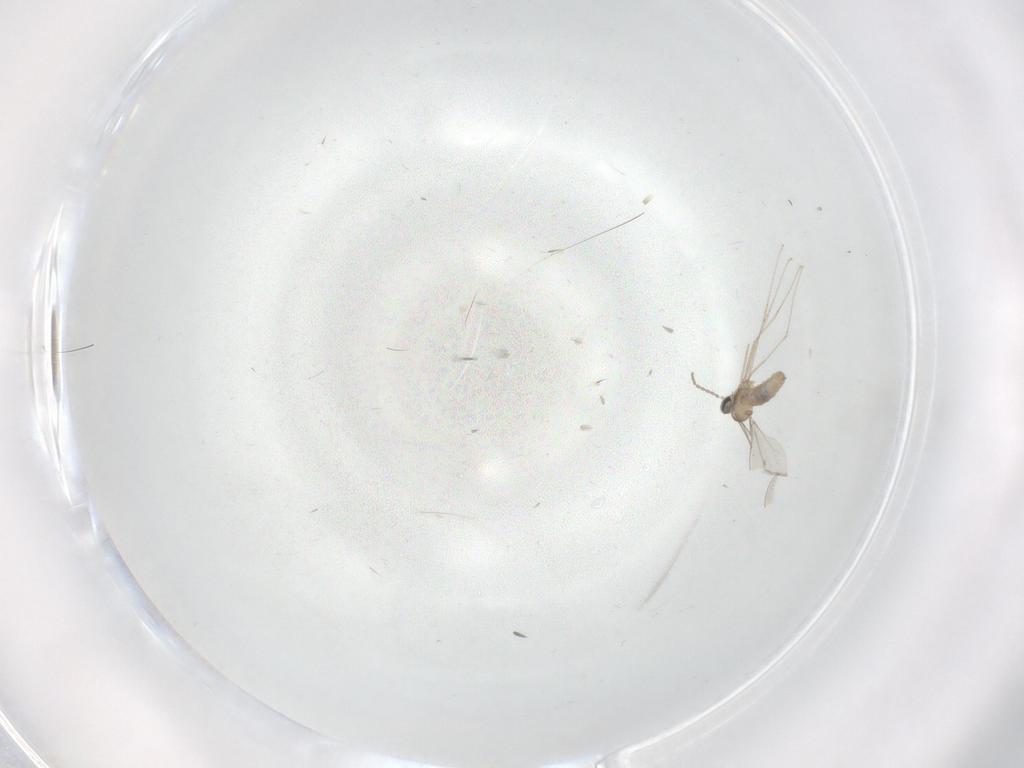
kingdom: Animalia
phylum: Arthropoda
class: Insecta
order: Diptera
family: Cecidomyiidae
